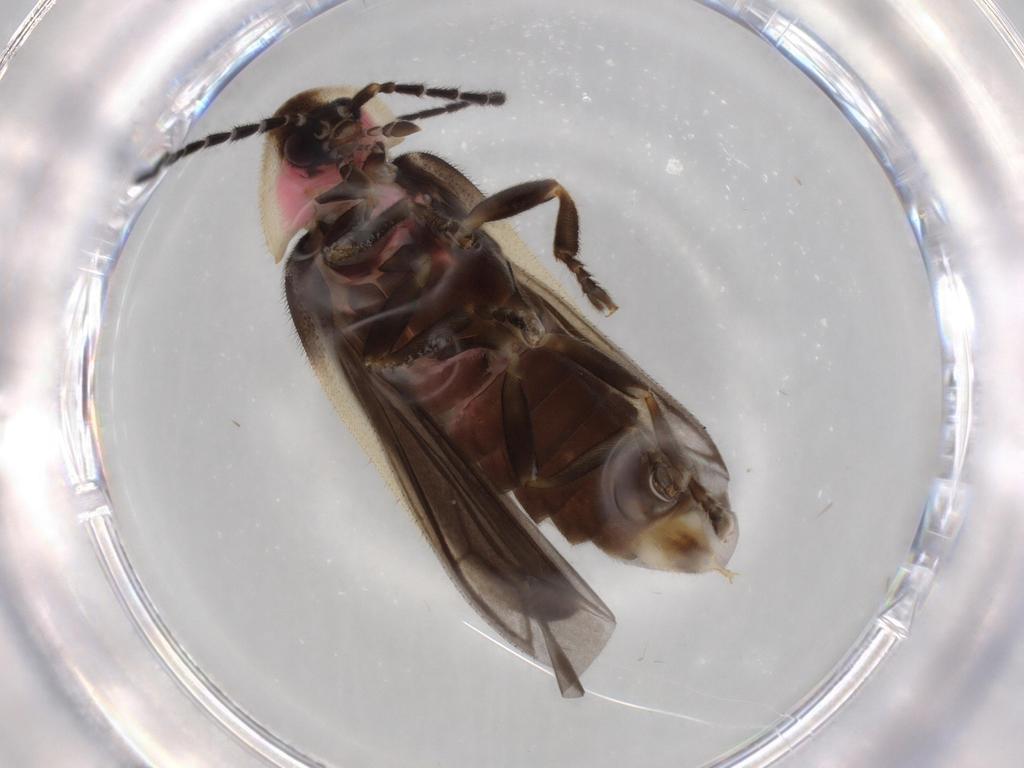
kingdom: Animalia
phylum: Arthropoda
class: Insecta
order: Coleoptera
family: Lampyridae
